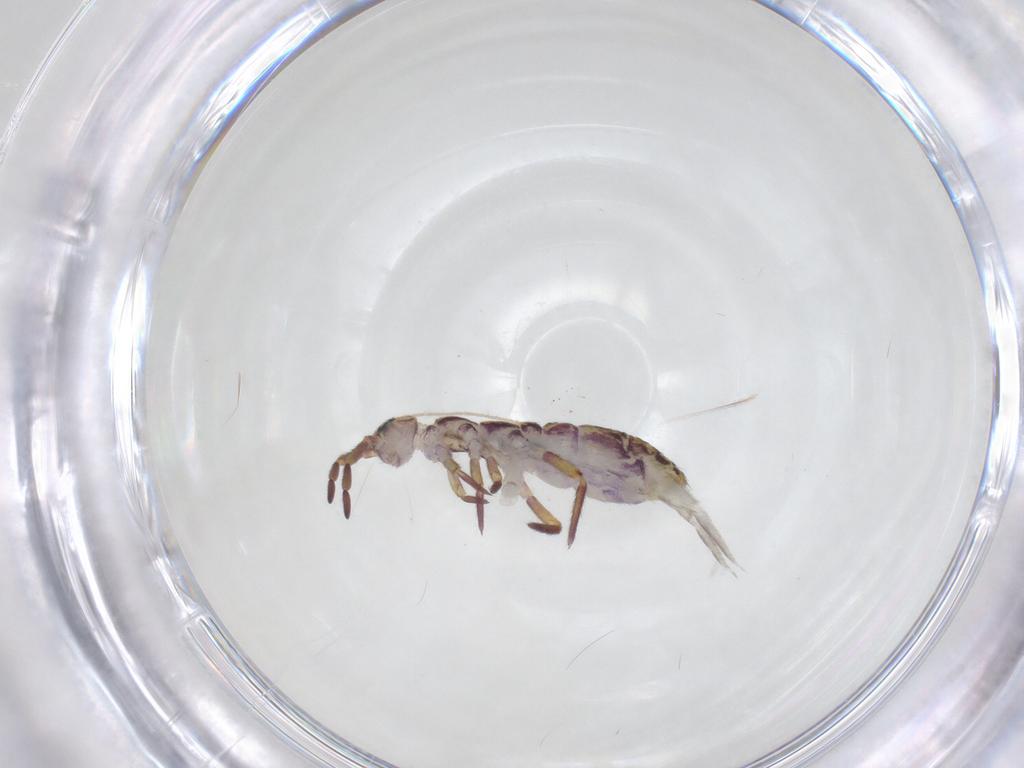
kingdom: Animalia
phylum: Arthropoda
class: Collembola
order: Entomobryomorpha
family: Isotomidae
